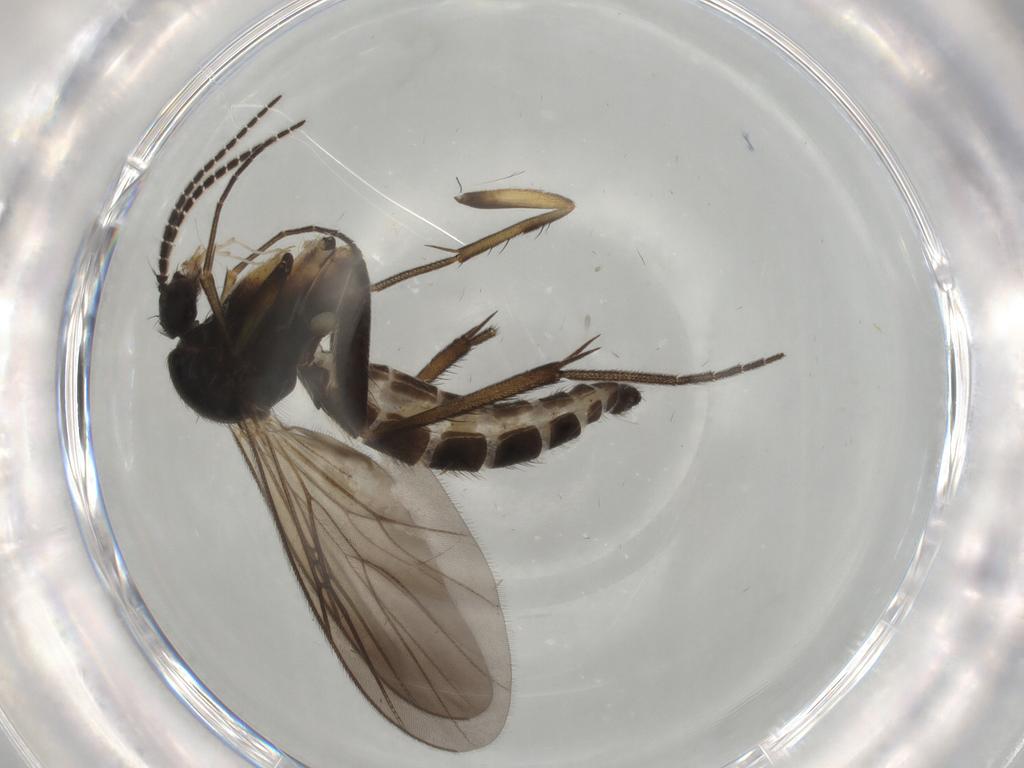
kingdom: Animalia
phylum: Arthropoda
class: Insecta
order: Diptera
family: Chironomidae
